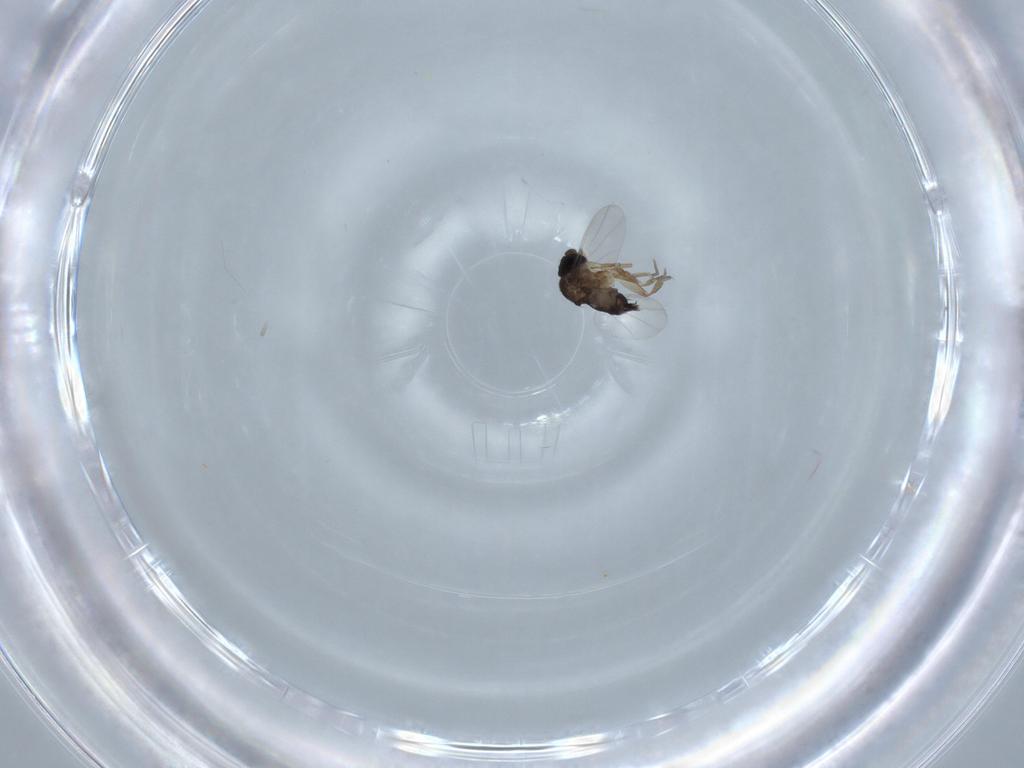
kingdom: Animalia
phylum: Arthropoda
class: Insecta
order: Diptera
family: Phoridae
